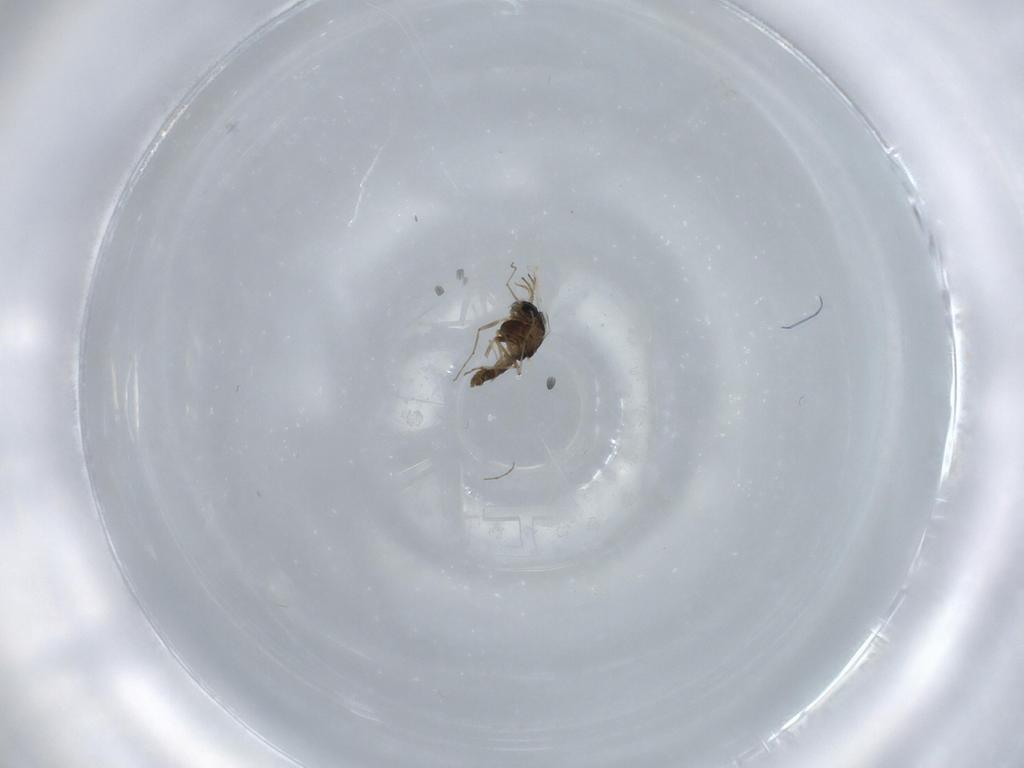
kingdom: Animalia
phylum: Arthropoda
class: Insecta
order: Diptera
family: Chironomidae
